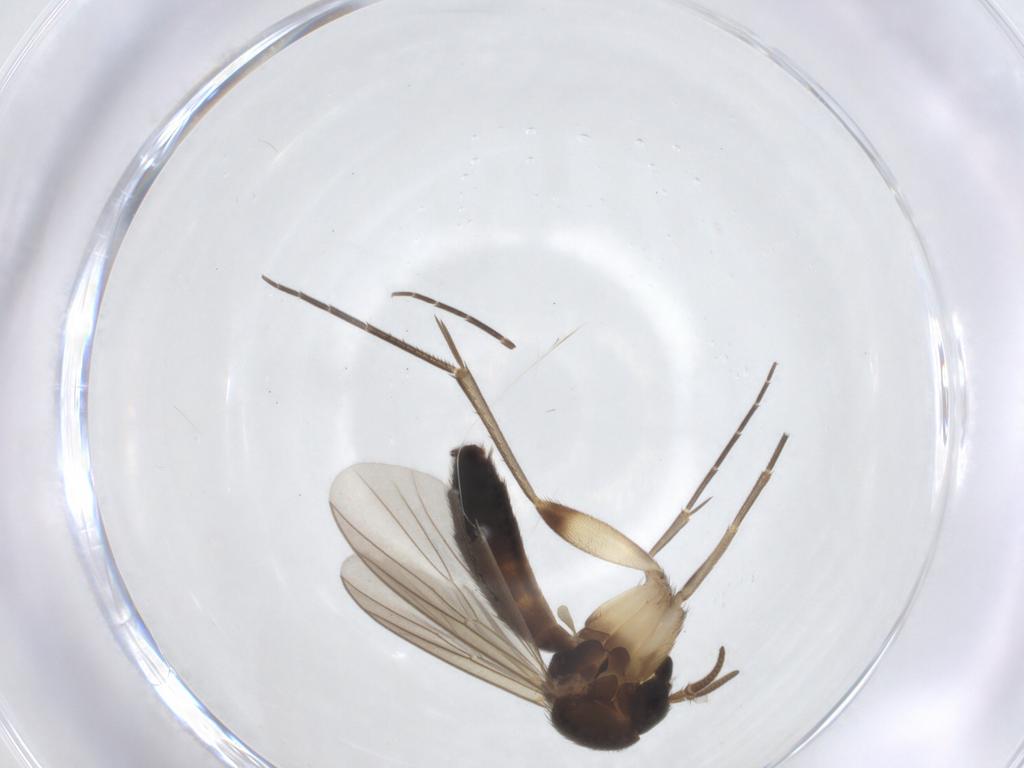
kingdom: Animalia
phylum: Arthropoda
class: Insecta
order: Diptera
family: Mycetophilidae
